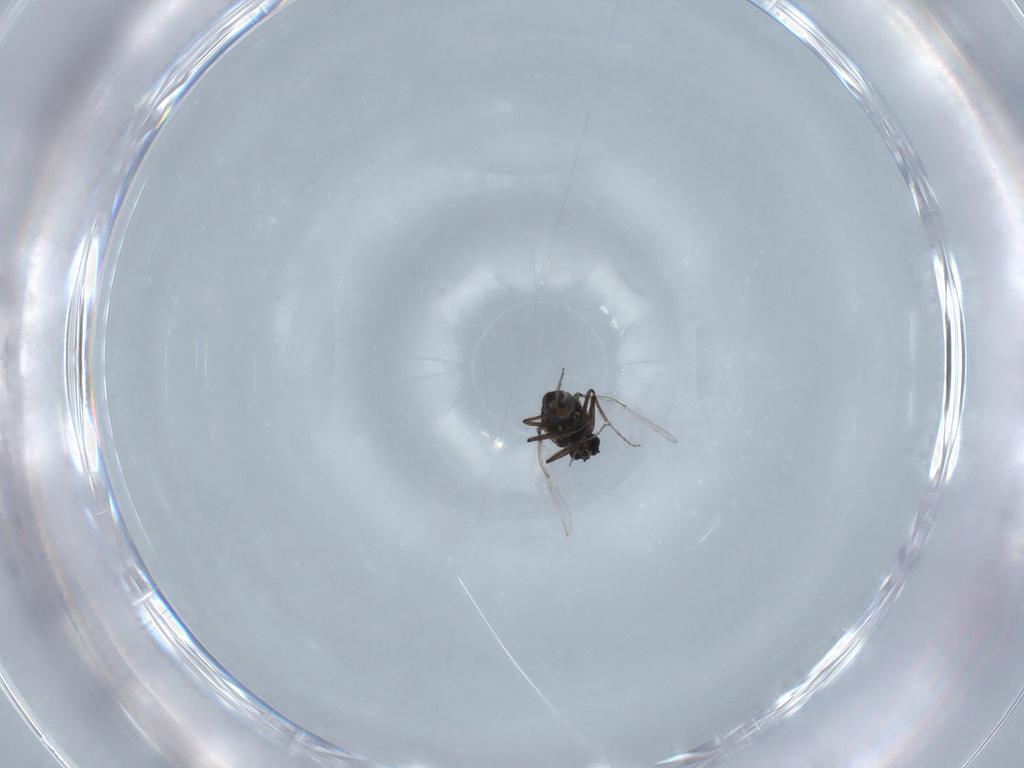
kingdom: Animalia
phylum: Arthropoda
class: Insecta
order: Diptera
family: Ceratopogonidae
